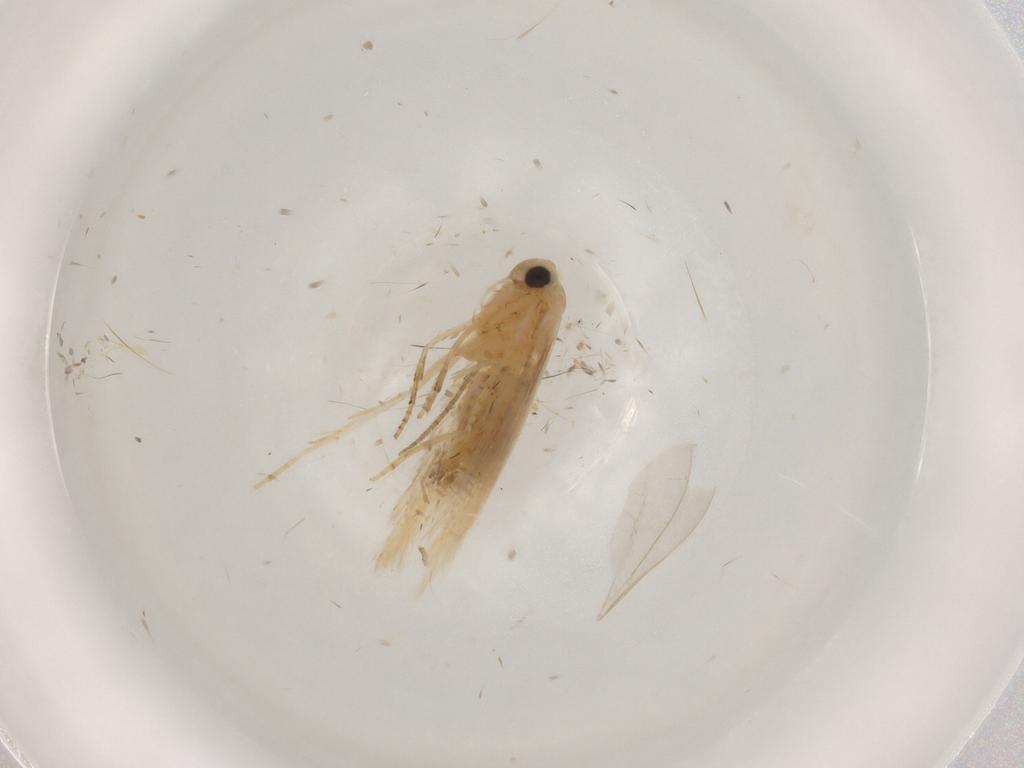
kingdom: Animalia
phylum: Arthropoda
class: Insecta
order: Lepidoptera
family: Bucculatricidae
